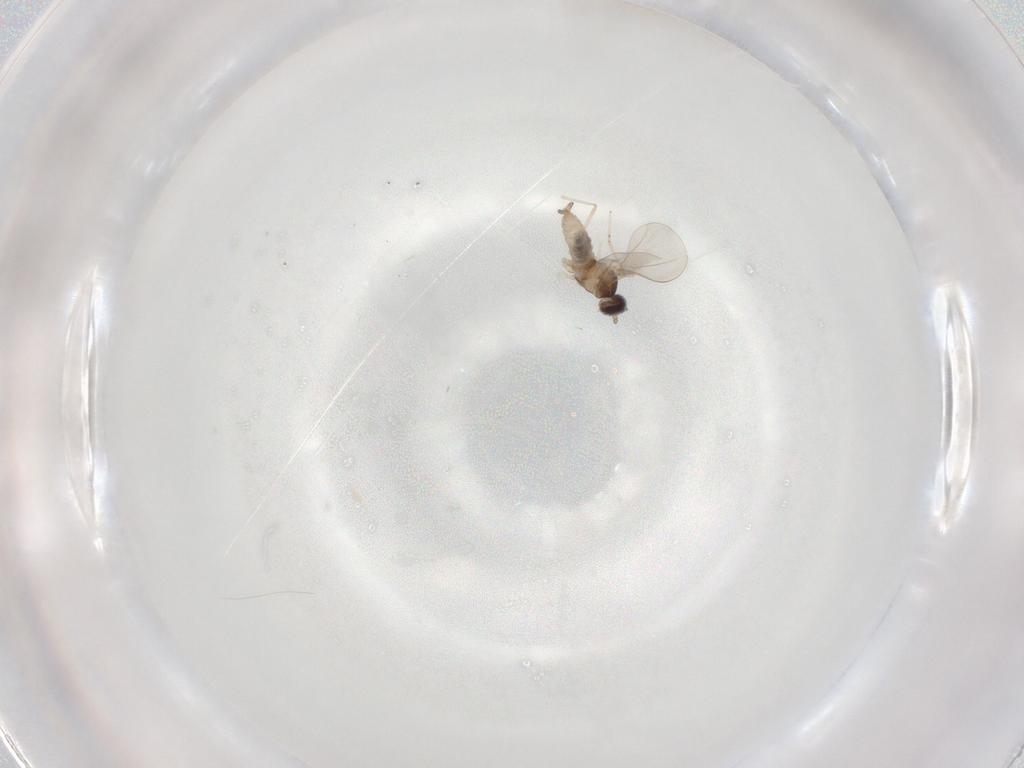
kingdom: Animalia
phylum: Arthropoda
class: Insecta
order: Diptera
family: Cecidomyiidae
